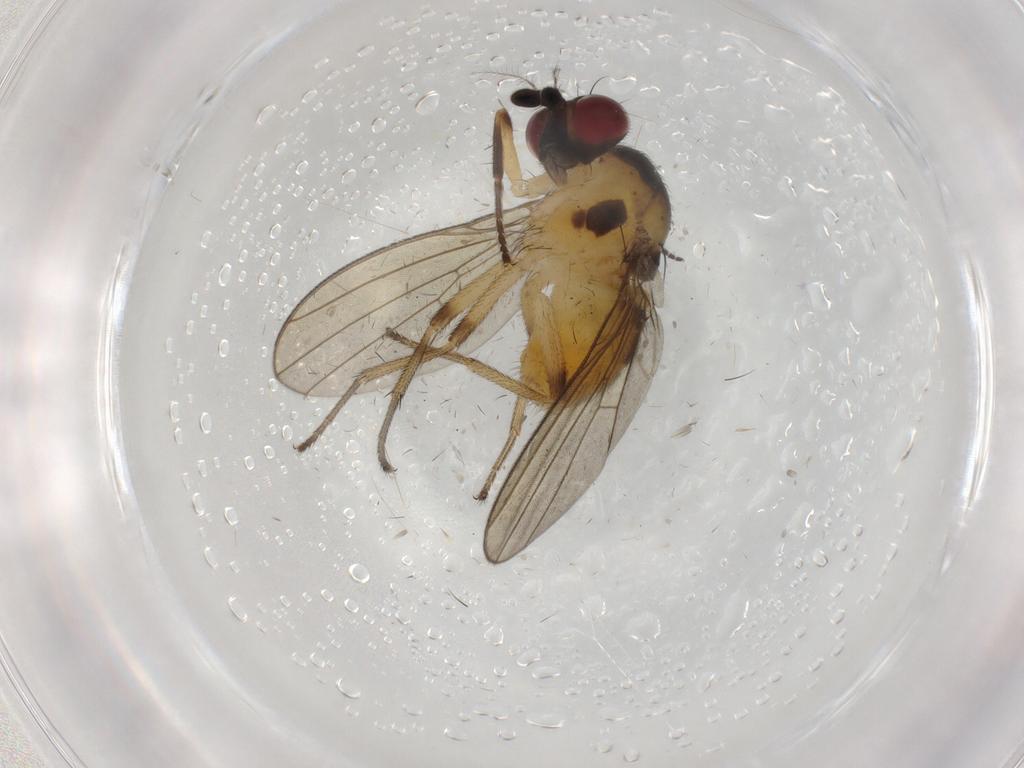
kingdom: Animalia
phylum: Arthropoda
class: Insecta
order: Diptera
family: Lauxaniidae
